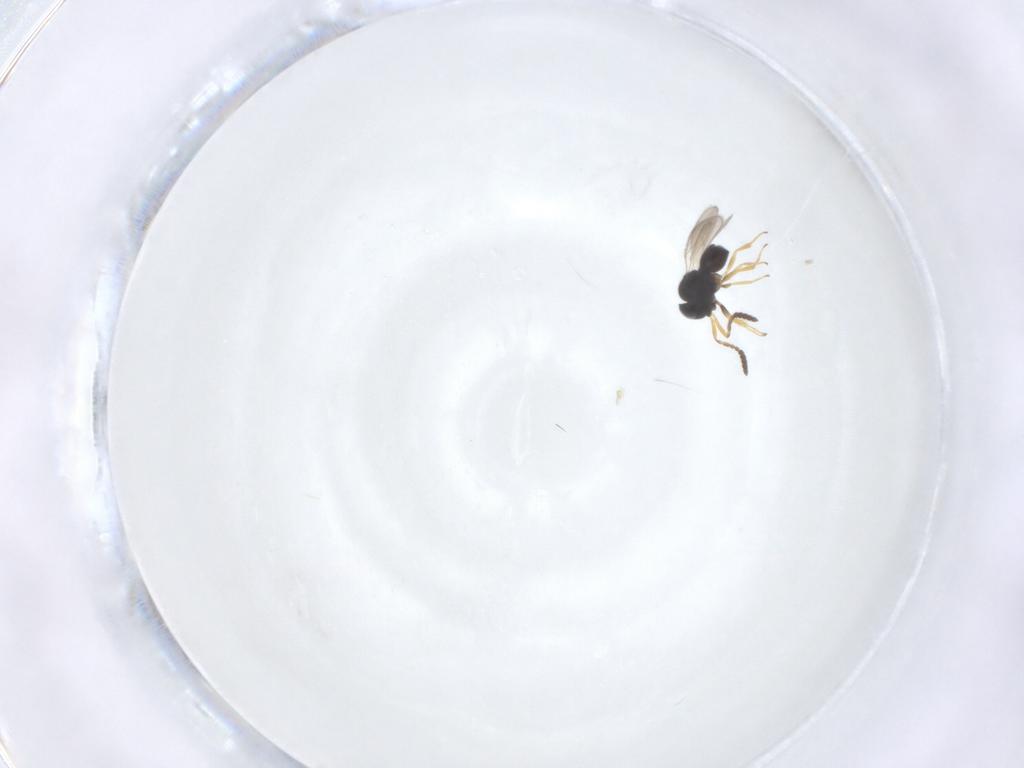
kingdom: Animalia
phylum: Arthropoda
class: Insecta
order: Hymenoptera
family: Scelionidae
